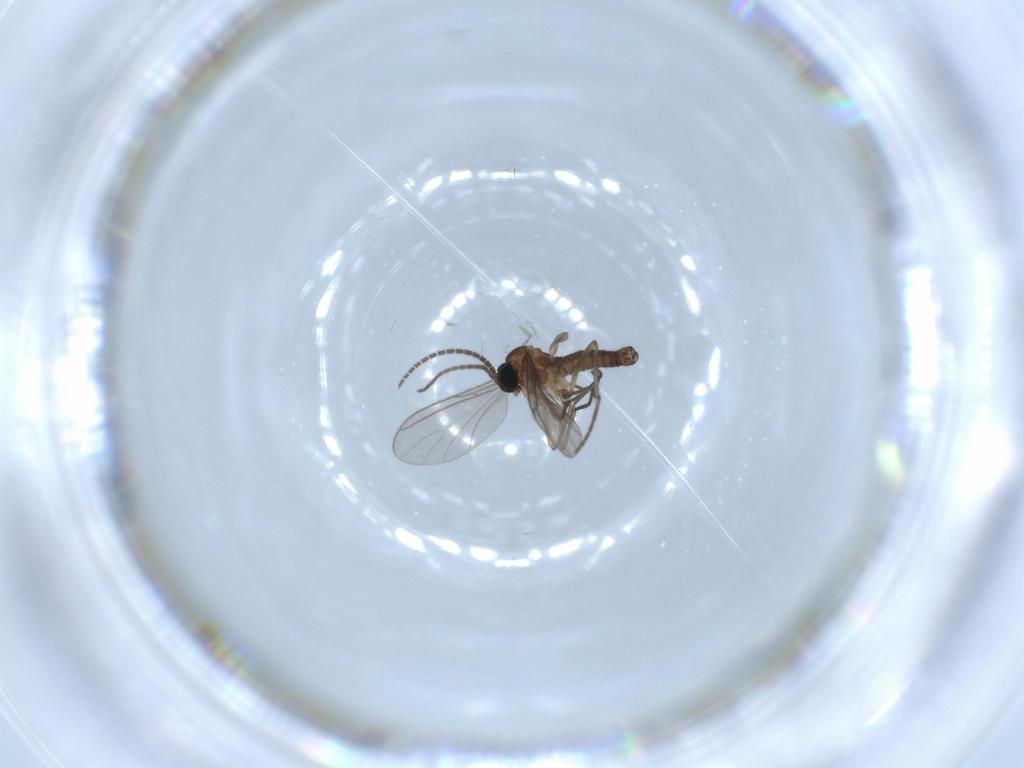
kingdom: Animalia
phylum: Arthropoda
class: Insecta
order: Diptera
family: Sciaridae
